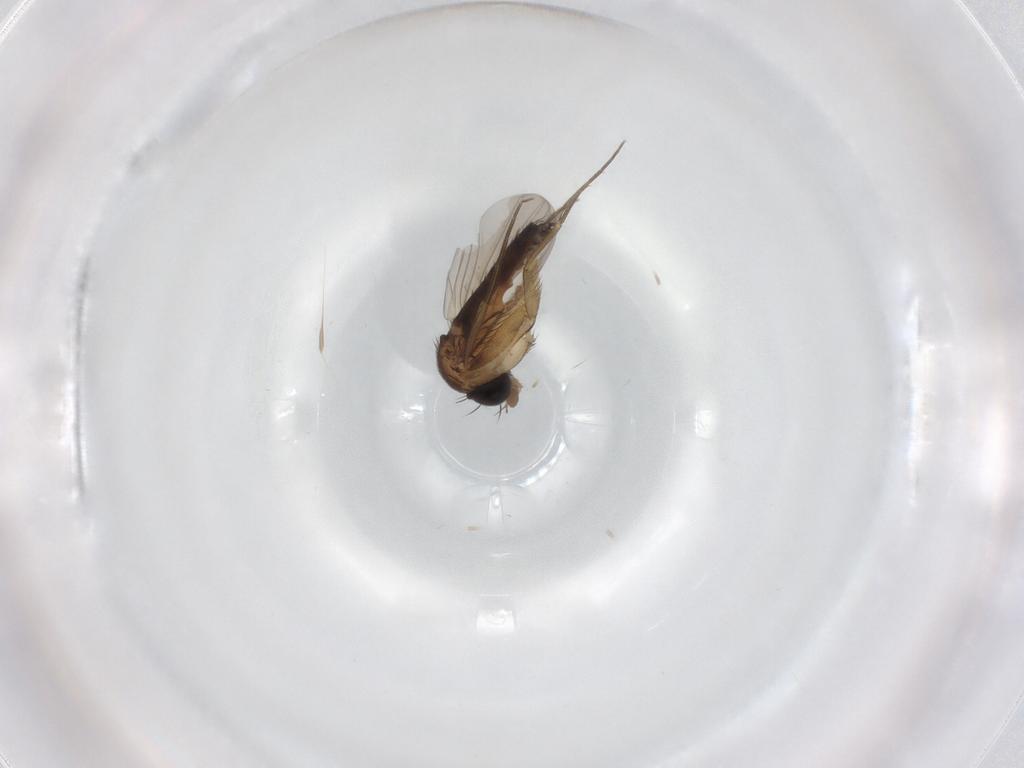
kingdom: Animalia
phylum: Arthropoda
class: Insecta
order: Diptera
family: Phoridae
